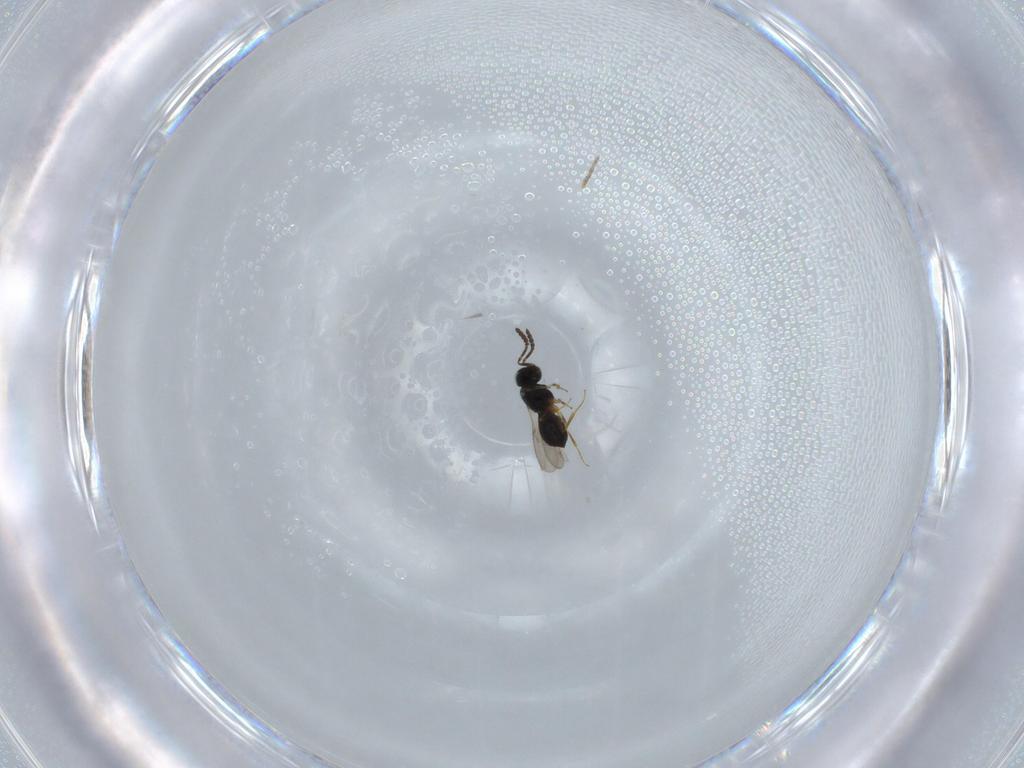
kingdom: Animalia
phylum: Arthropoda
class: Insecta
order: Hymenoptera
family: Scelionidae
